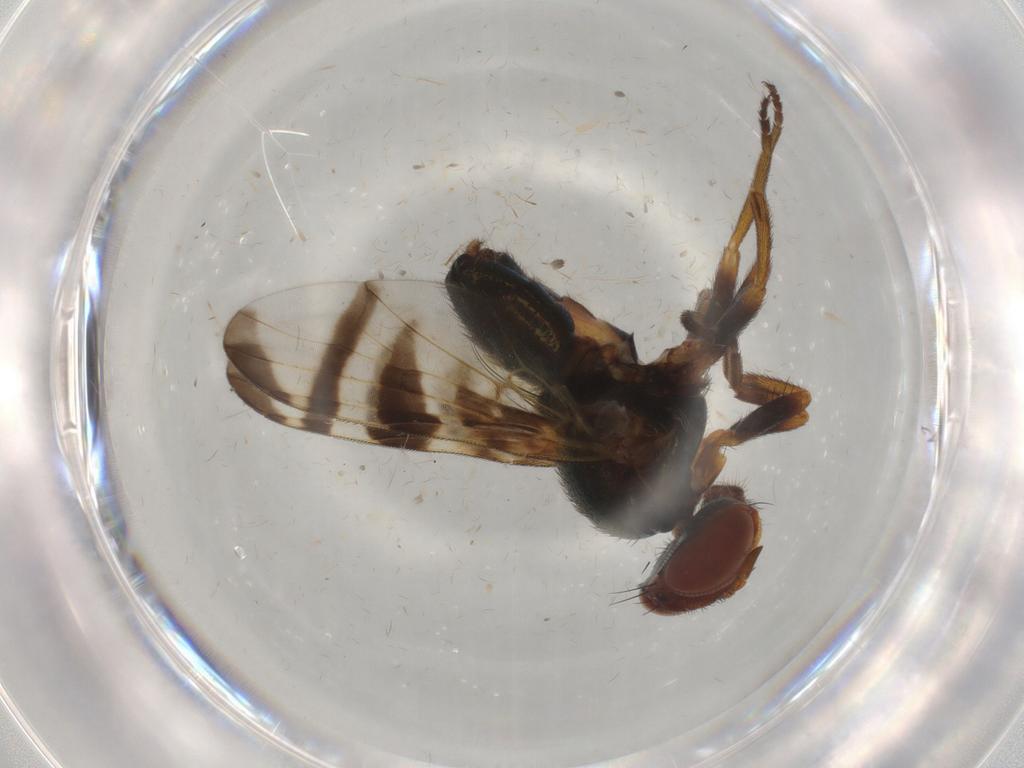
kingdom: Animalia
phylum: Arthropoda
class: Insecta
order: Diptera
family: Platystomatidae
